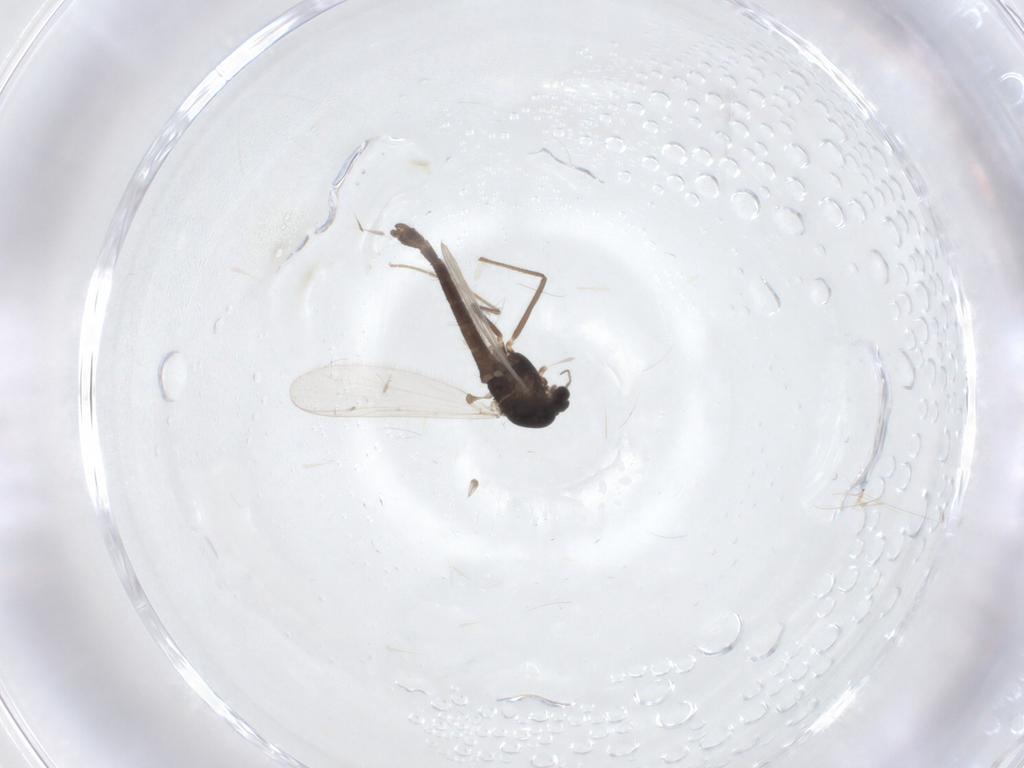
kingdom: Animalia
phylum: Arthropoda
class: Insecta
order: Diptera
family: Chironomidae
